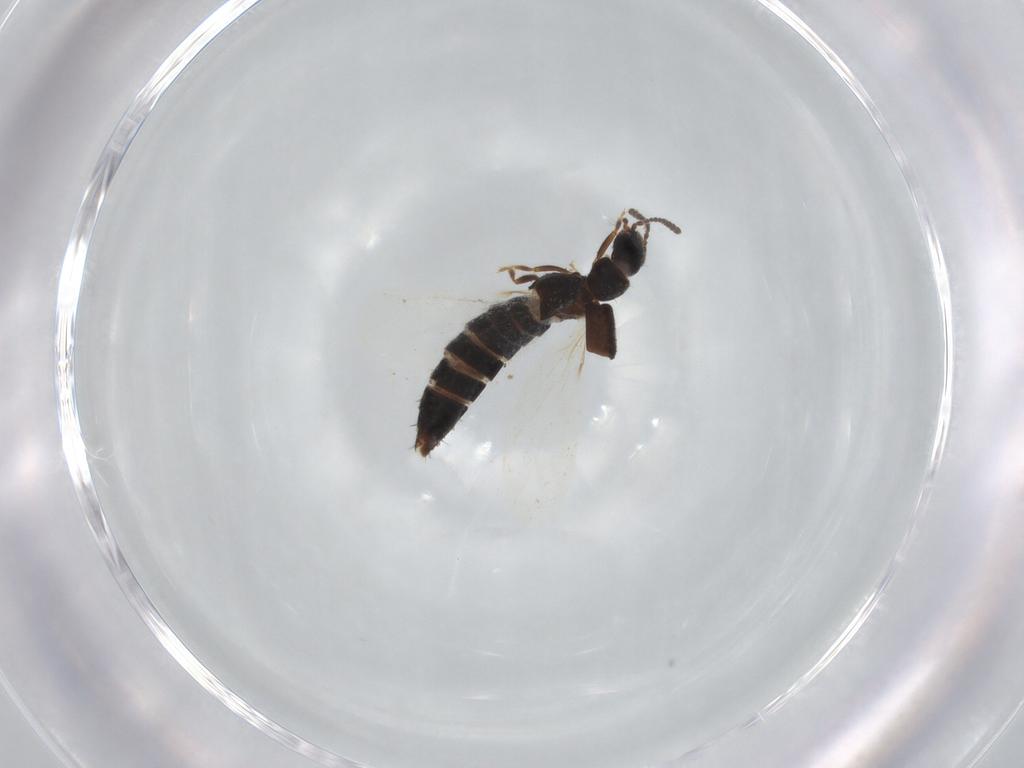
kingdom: Animalia
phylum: Arthropoda
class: Insecta
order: Coleoptera
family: Staphylinidae
